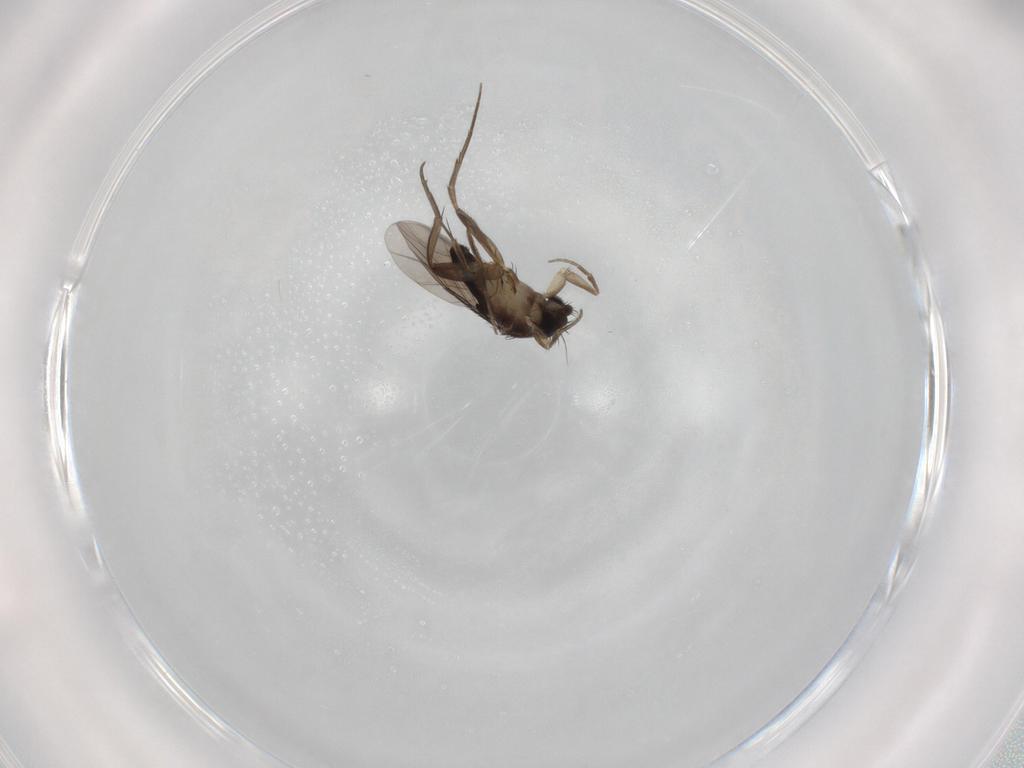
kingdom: Animalia
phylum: Arthropoda
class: Insecta
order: Diptera
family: Phoridae
